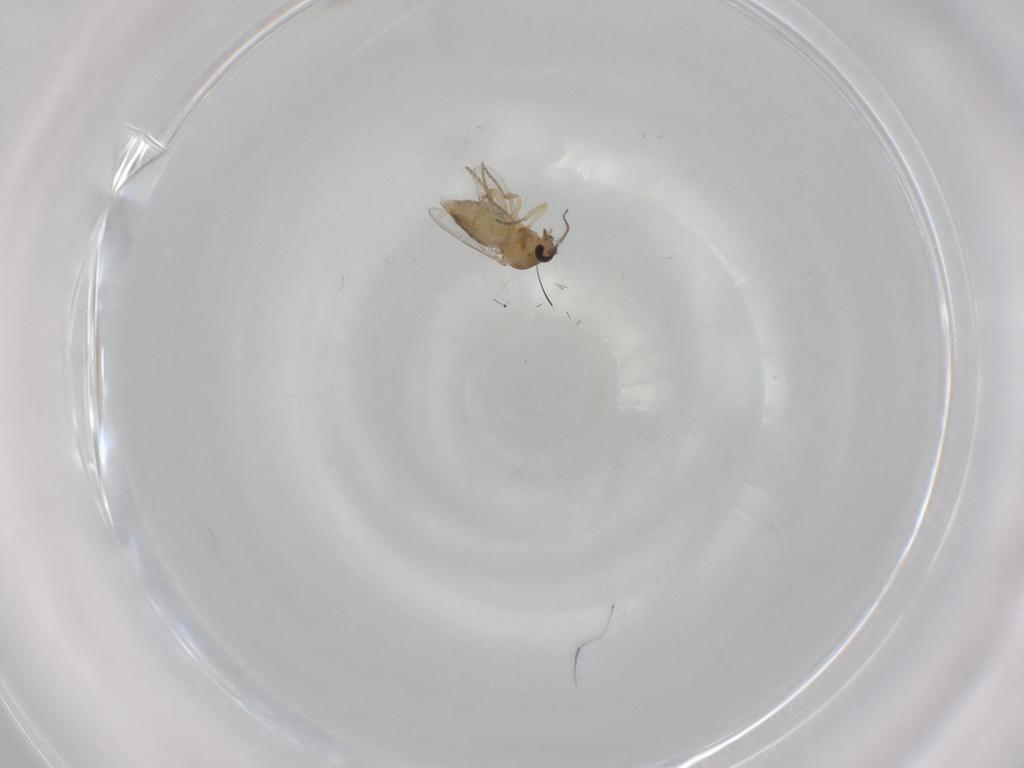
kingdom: Animalia
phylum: Arthropoda
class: Insecta
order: Diptera
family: Ceratopogonidae
